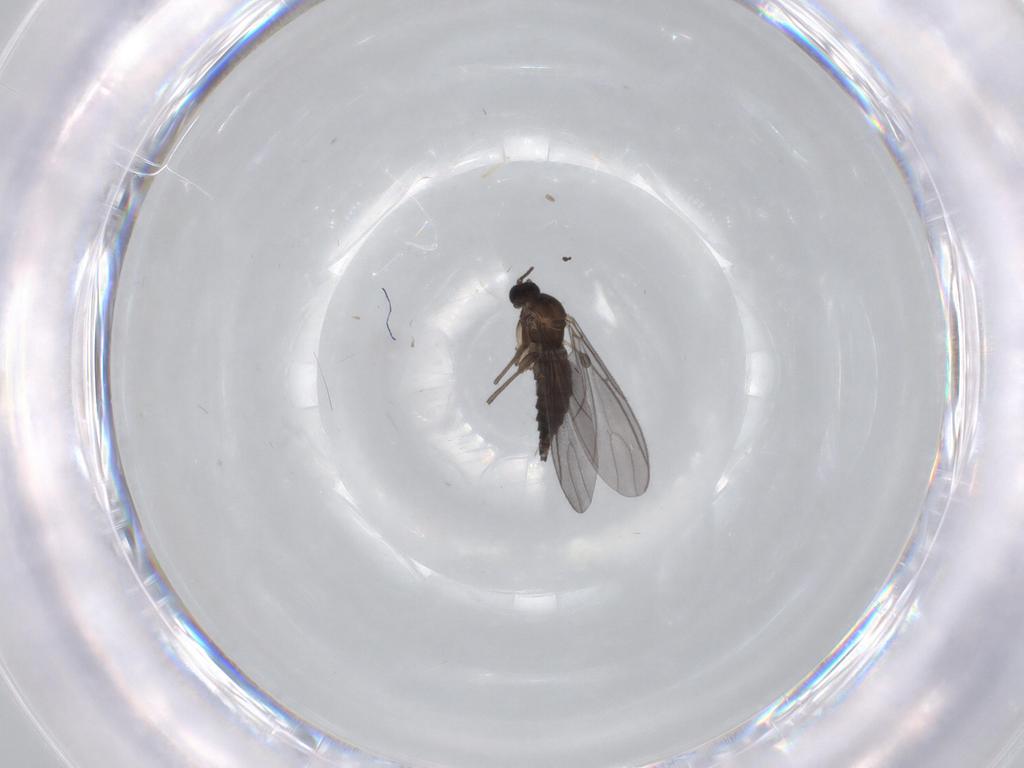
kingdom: Animalia
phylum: Arthropoda
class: Insecta
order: Diptera
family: Sciaridae
